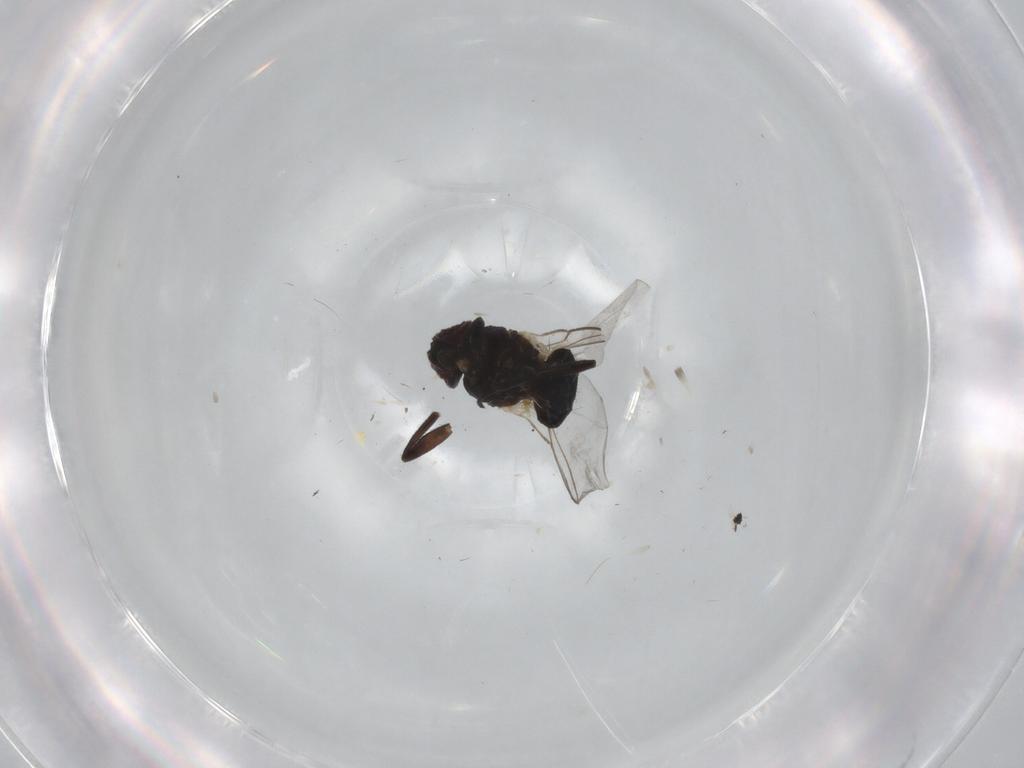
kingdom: Animalia
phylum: Arthropoda
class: Insecta
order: Diptera
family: Agromyzidae
